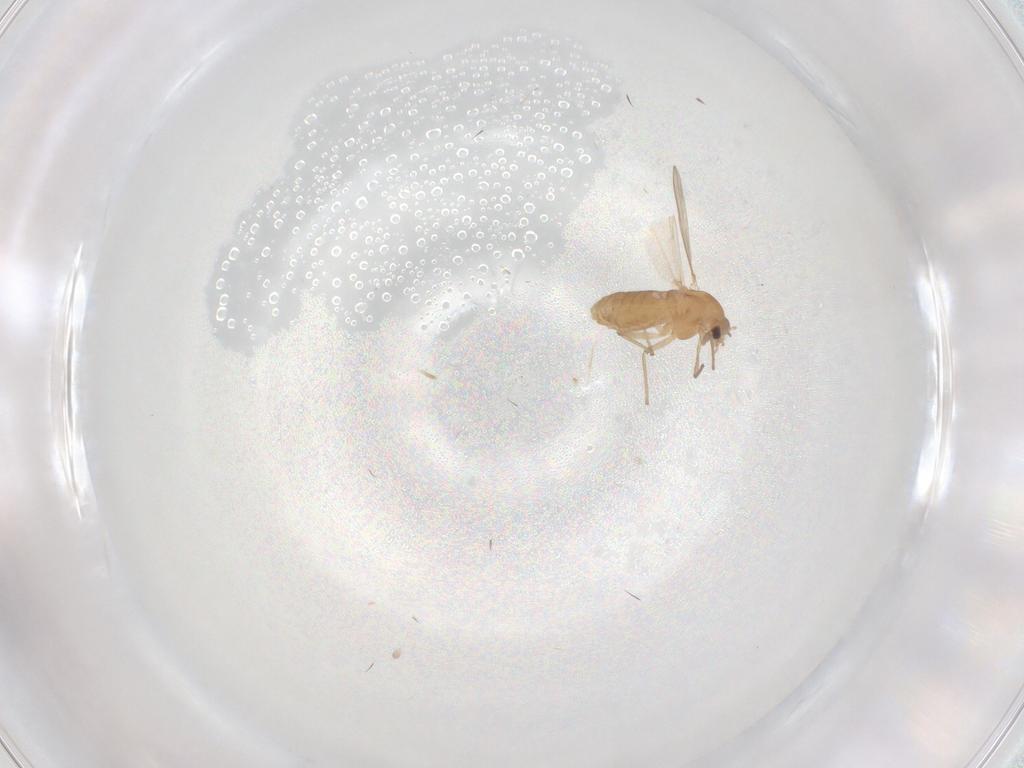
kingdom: Animalia
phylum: Arthropoda
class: Insecta
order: Diptera
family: Chironomidae
